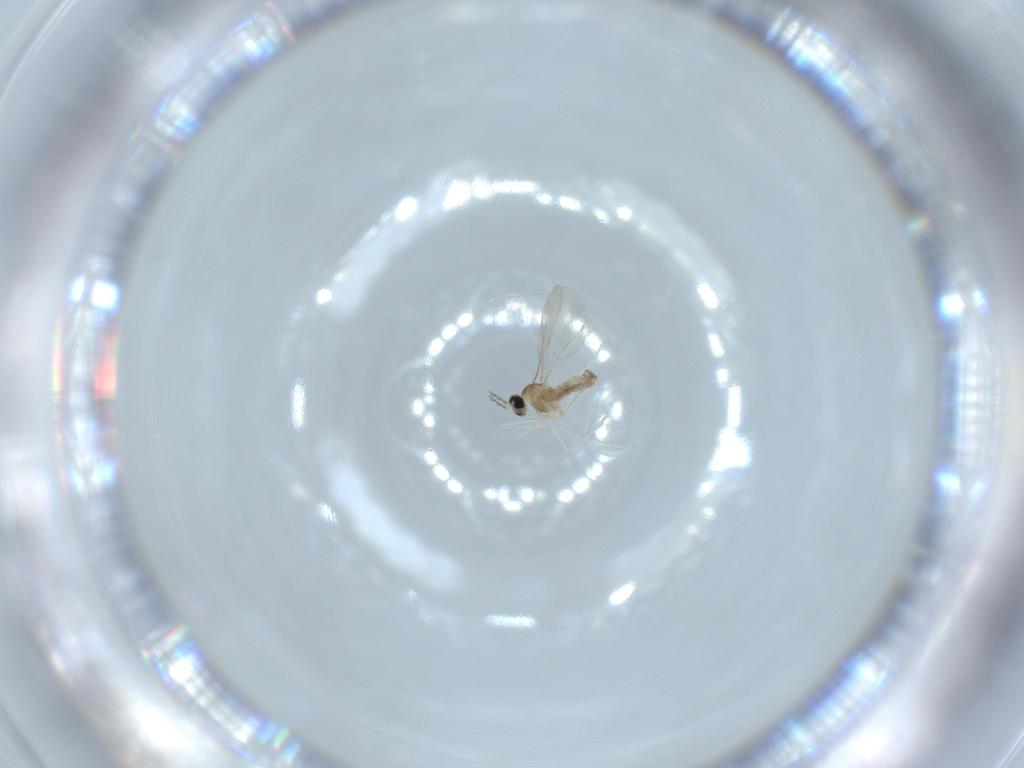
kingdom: Animalia
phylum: Arthropoda
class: Insecta
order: Diptera
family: Cecidomyiidae
